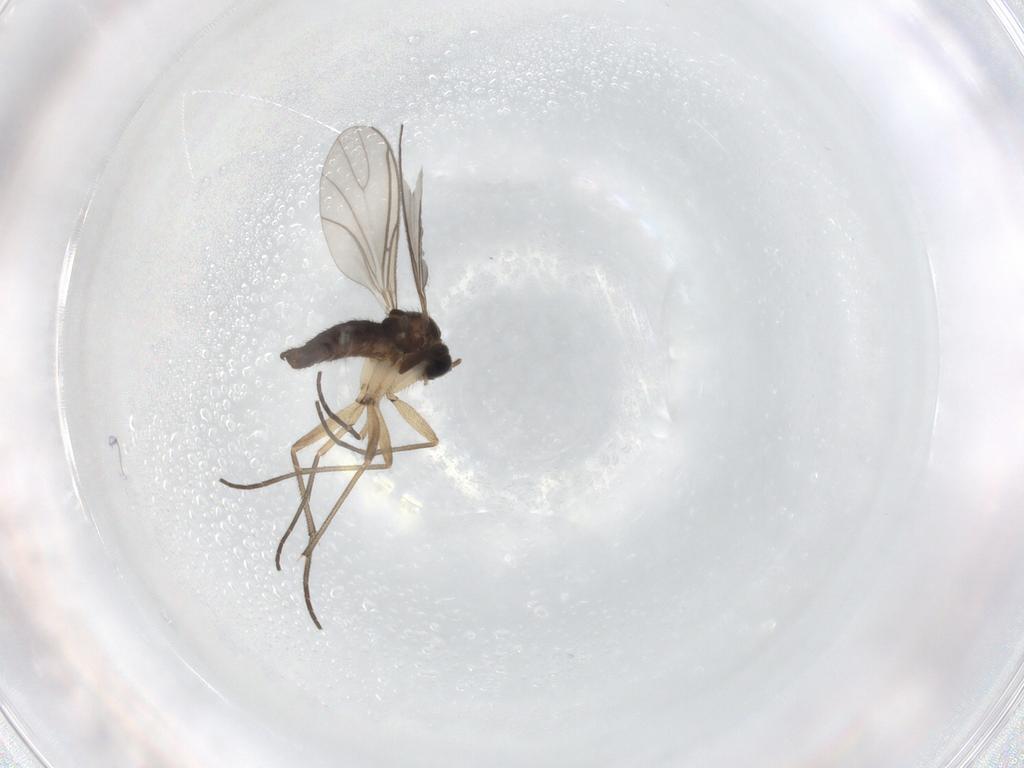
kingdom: Animalia
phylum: Arthropoda
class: Insecta
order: Diptera
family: Sciaridae
